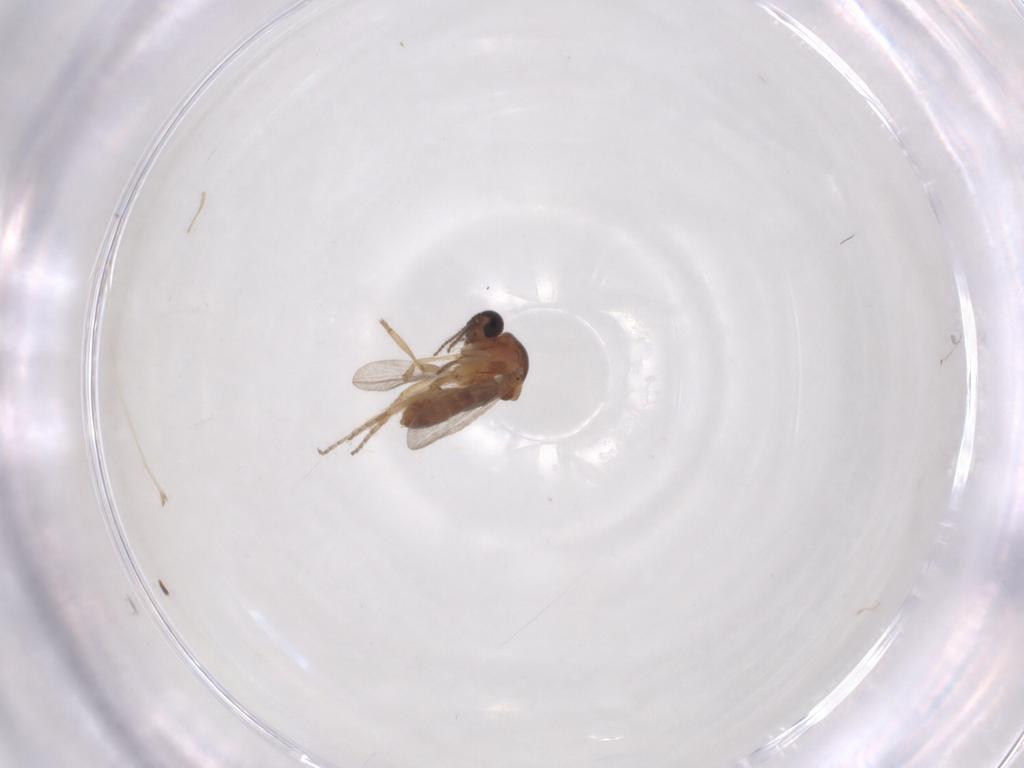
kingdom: Animalia
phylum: Arthropoda
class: Insecta
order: Diptera
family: Ceratopogonidae
